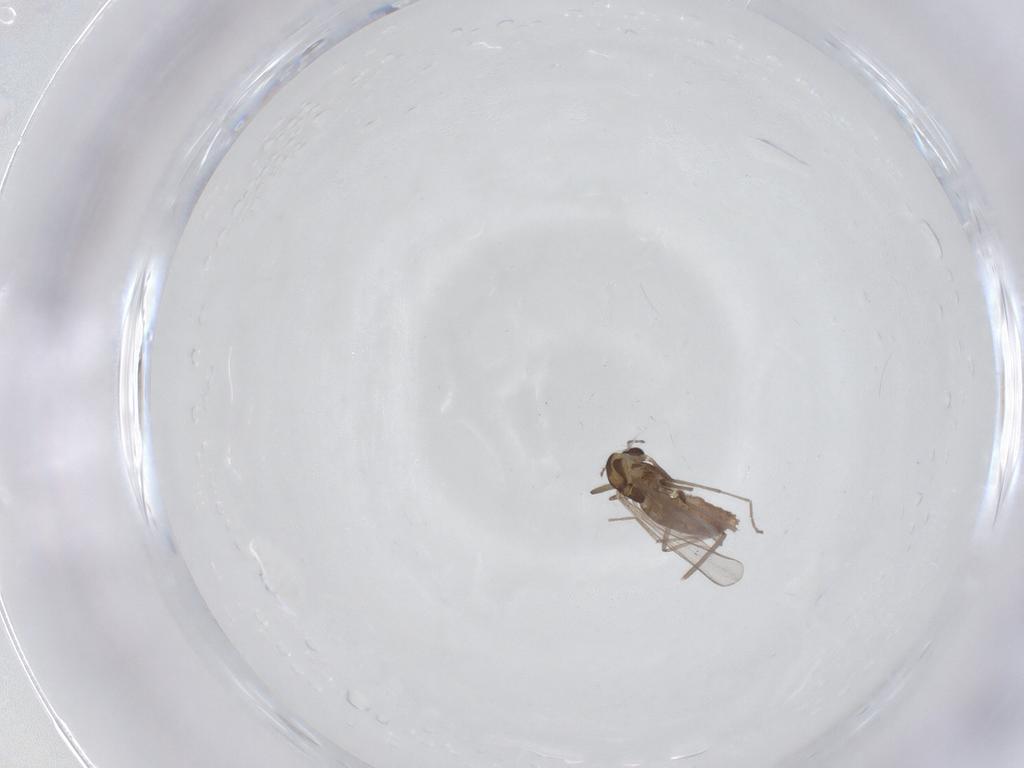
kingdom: Animalia
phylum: Arthropoda
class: Insecta
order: Diptera
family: Chironomidae
